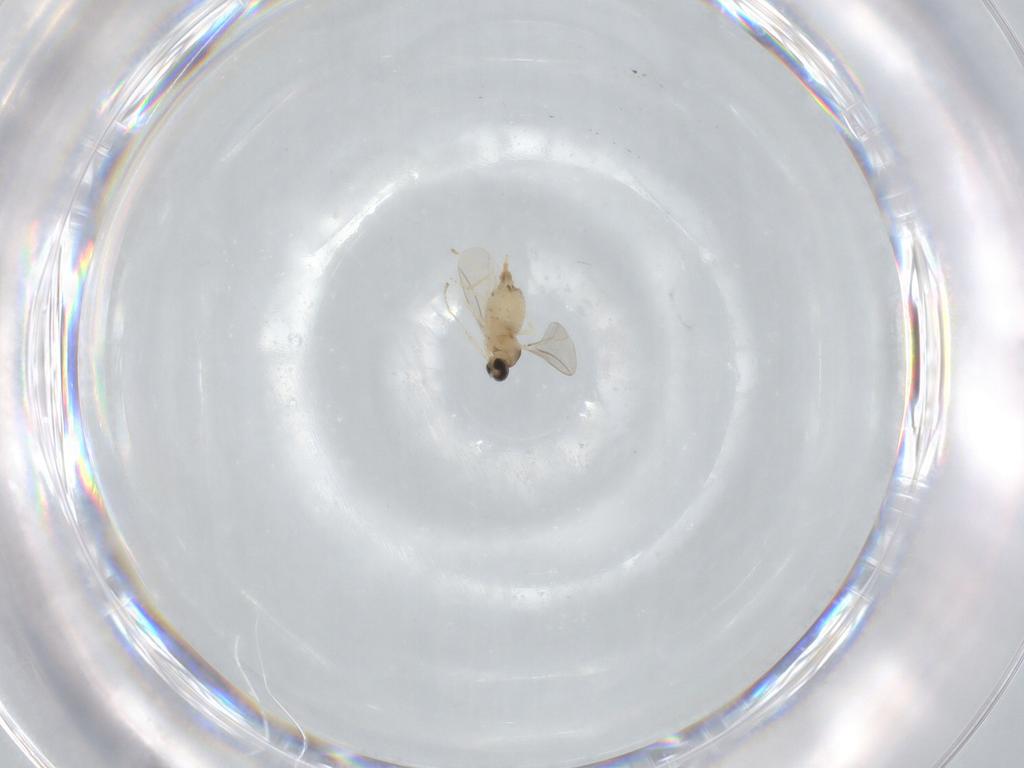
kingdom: Animalia
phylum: Arthropoda
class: Insecta
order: Diptera
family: Cecidomyiidae
